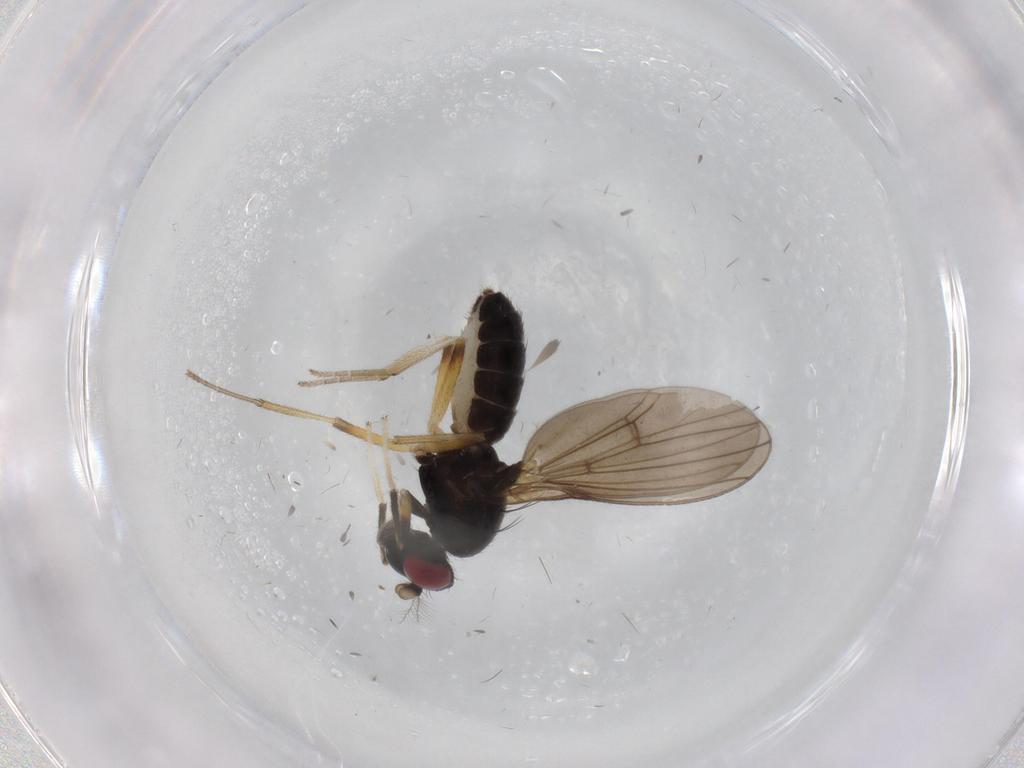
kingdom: Animalia
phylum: Arthropoda
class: Insecta
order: Diptera
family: Lauxaniidae
